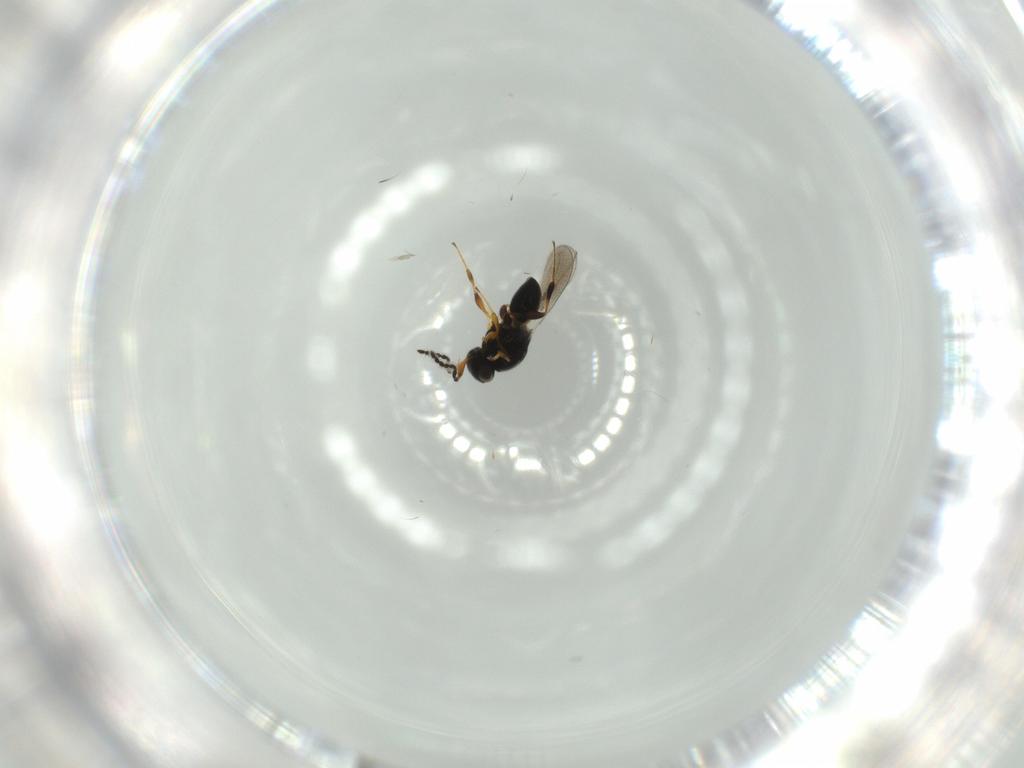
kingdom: Animalia
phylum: Arthropoda
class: Insecta
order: Hymenoptera
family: Platygastridae
